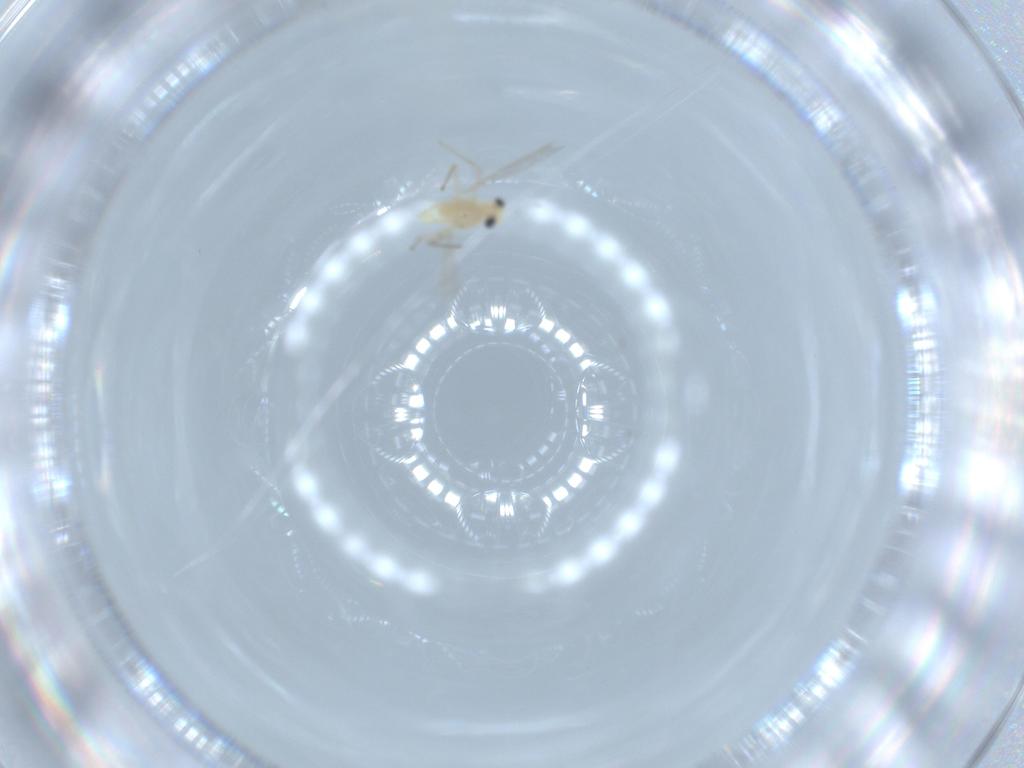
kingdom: Animalia
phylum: Arthropoda
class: Insecta
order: Diptera
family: Chironomidae
